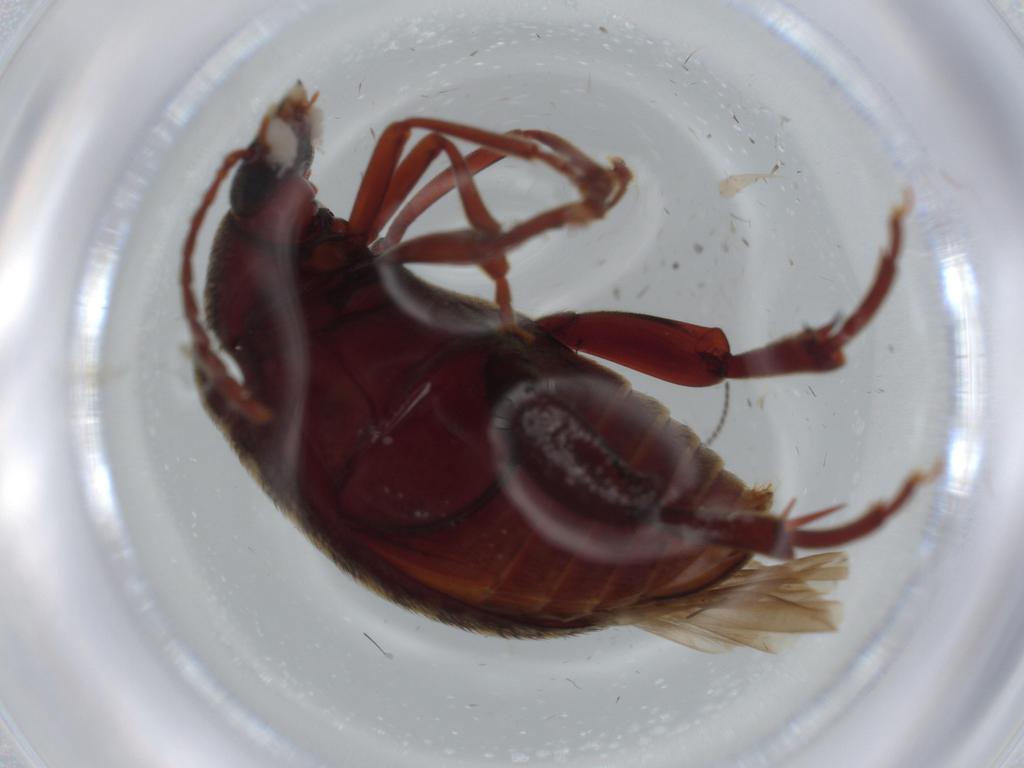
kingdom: Animalia
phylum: Arthropoda
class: Insecta
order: Coleoptera
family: Chrysomelidae
